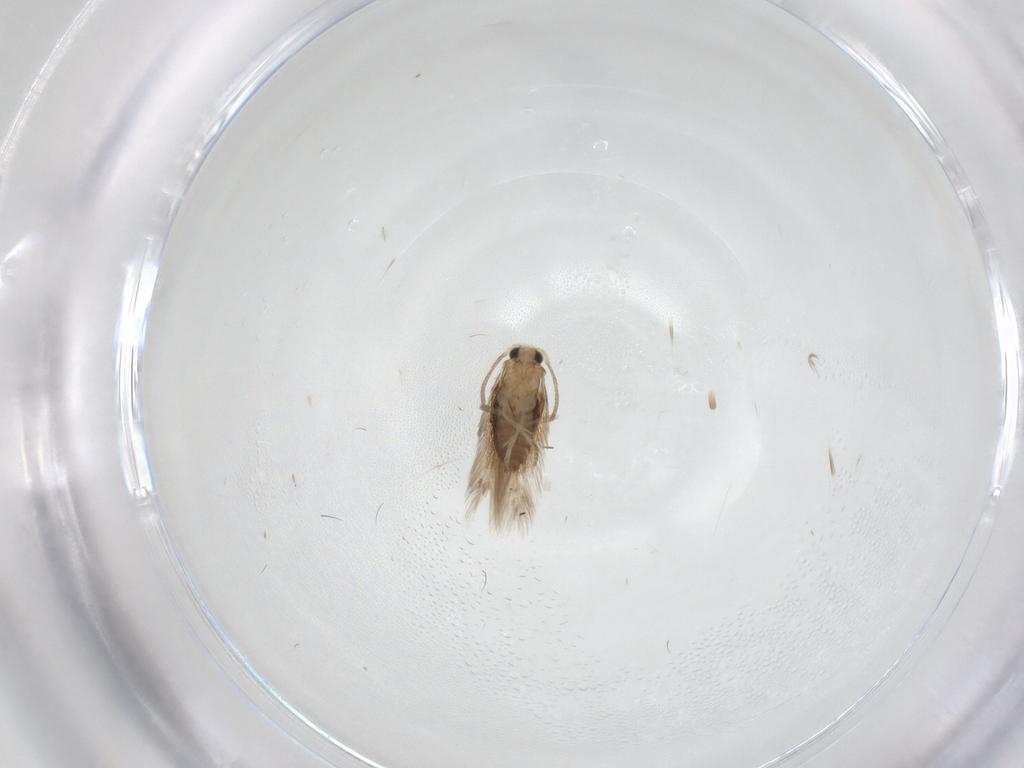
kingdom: Animalia
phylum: Arthropoda
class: Insecta
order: Lepidoptera
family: Nepticulidae
